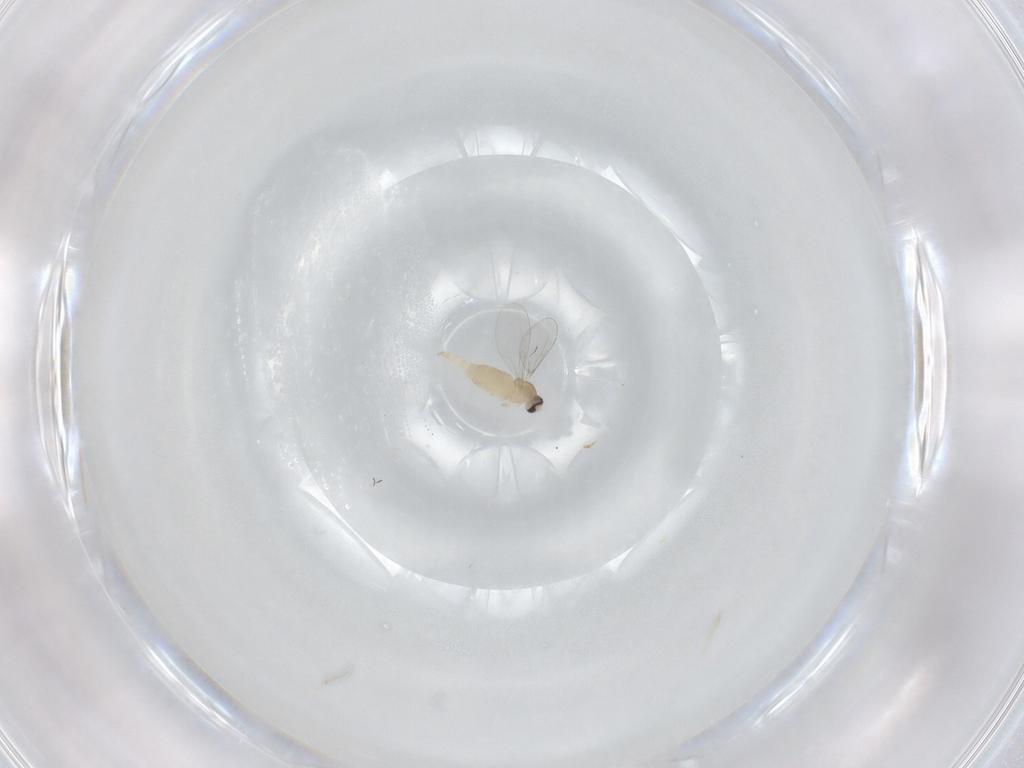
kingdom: Animalia
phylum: Arthropoda
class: Insecta
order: Diptera
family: Cecidomyiidae
